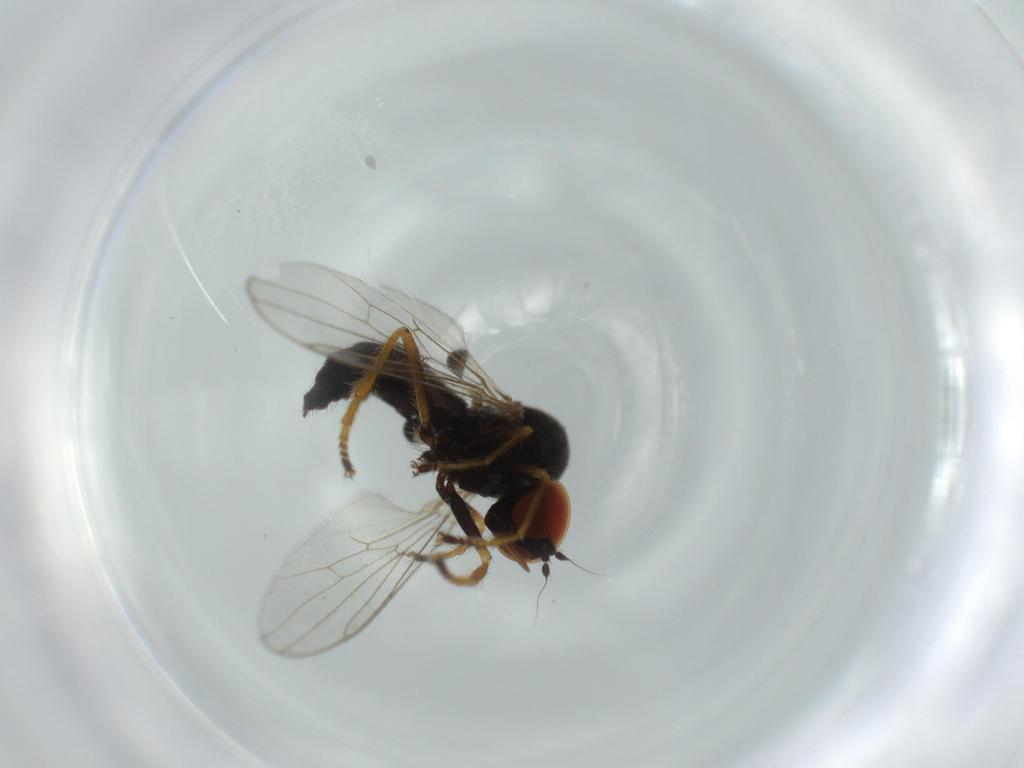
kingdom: Animalia
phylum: Arthropoda
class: Insecta
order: Diptera
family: Cecidomyiidae
